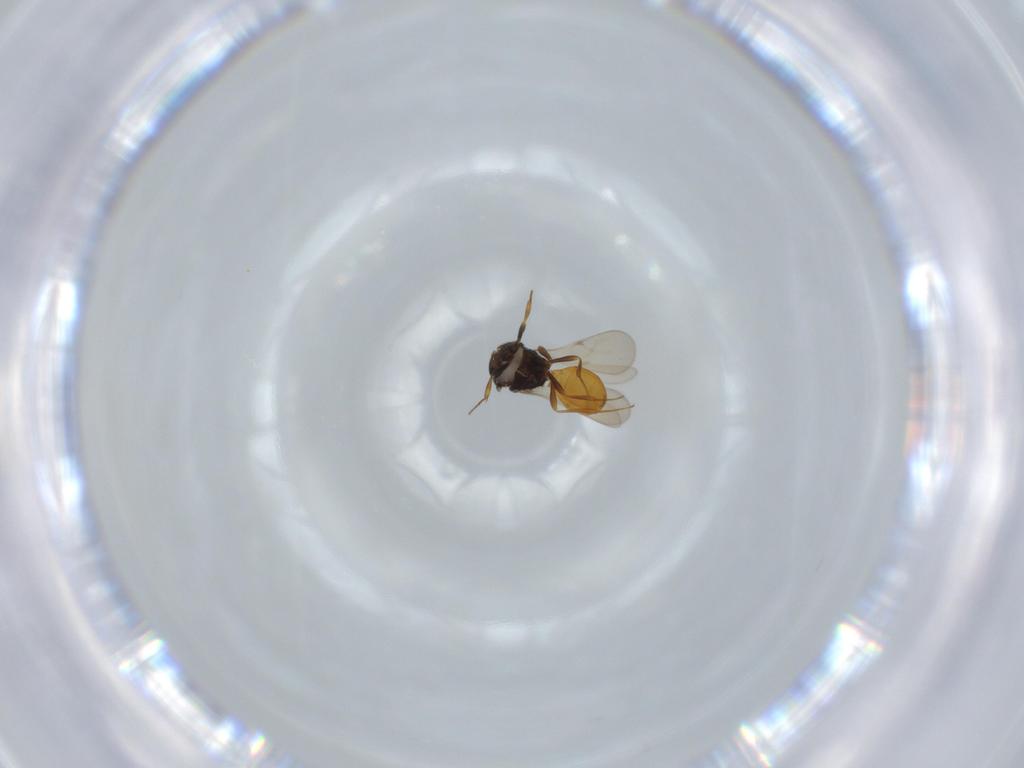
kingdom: Animalia
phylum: Arthropoda
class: Insecta
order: Hymenoptera
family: Scelionidae
